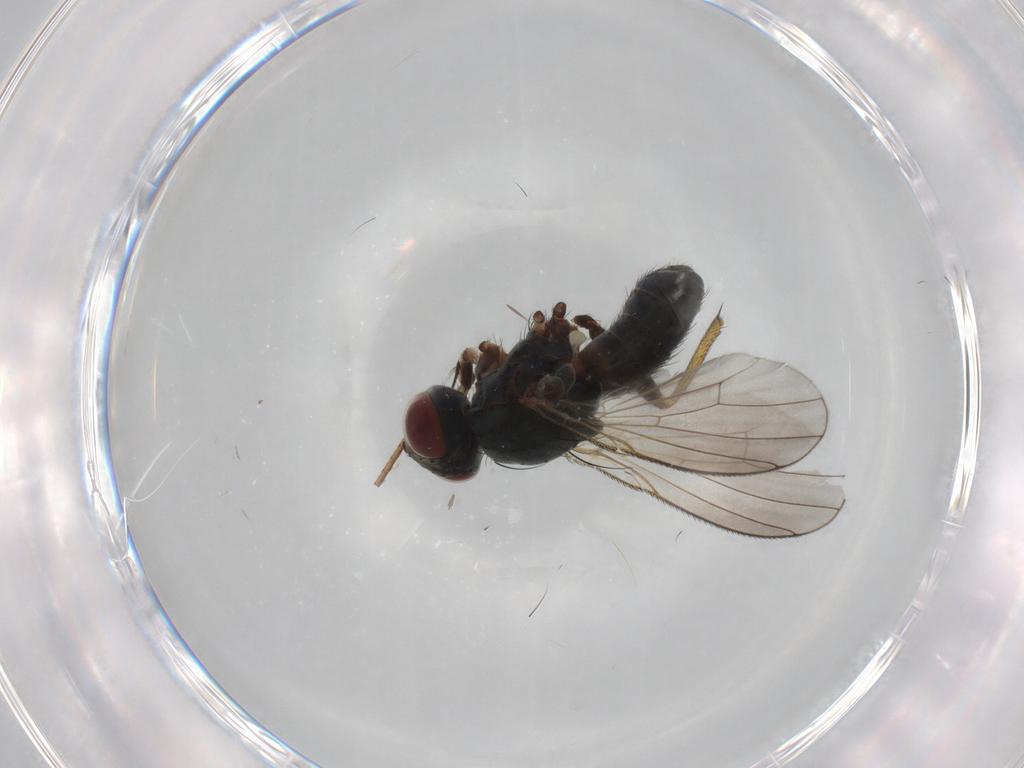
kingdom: Animalia
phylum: Arthropoda
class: Insecta
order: Diptera
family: Muscidae
